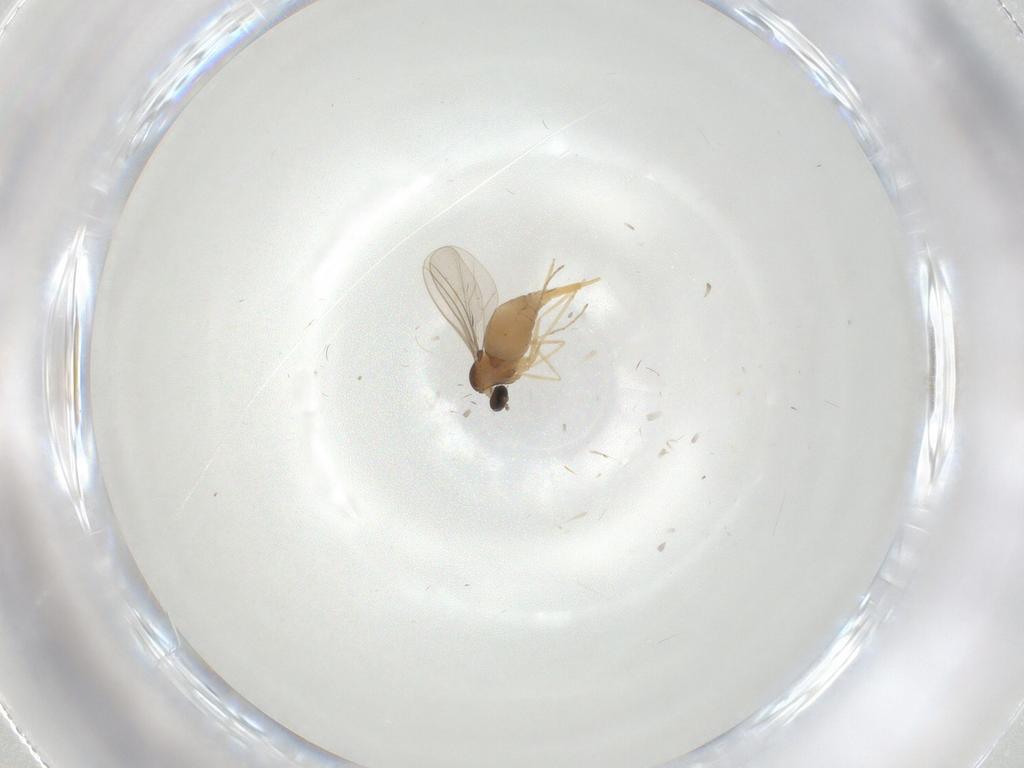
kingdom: Animalia
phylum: Arthropoda
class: Insecta
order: Diptera
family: Cecidomyiidae
